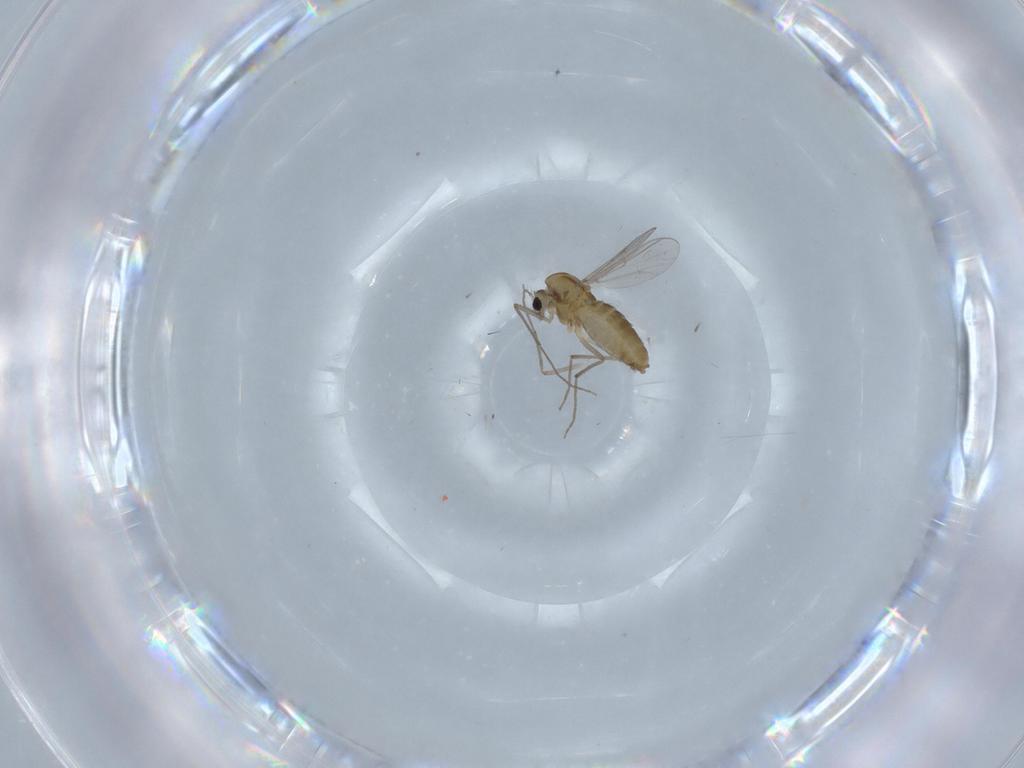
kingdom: Animalia
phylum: Arthropoda
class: Insecta
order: Diptera
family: Chironomidae
